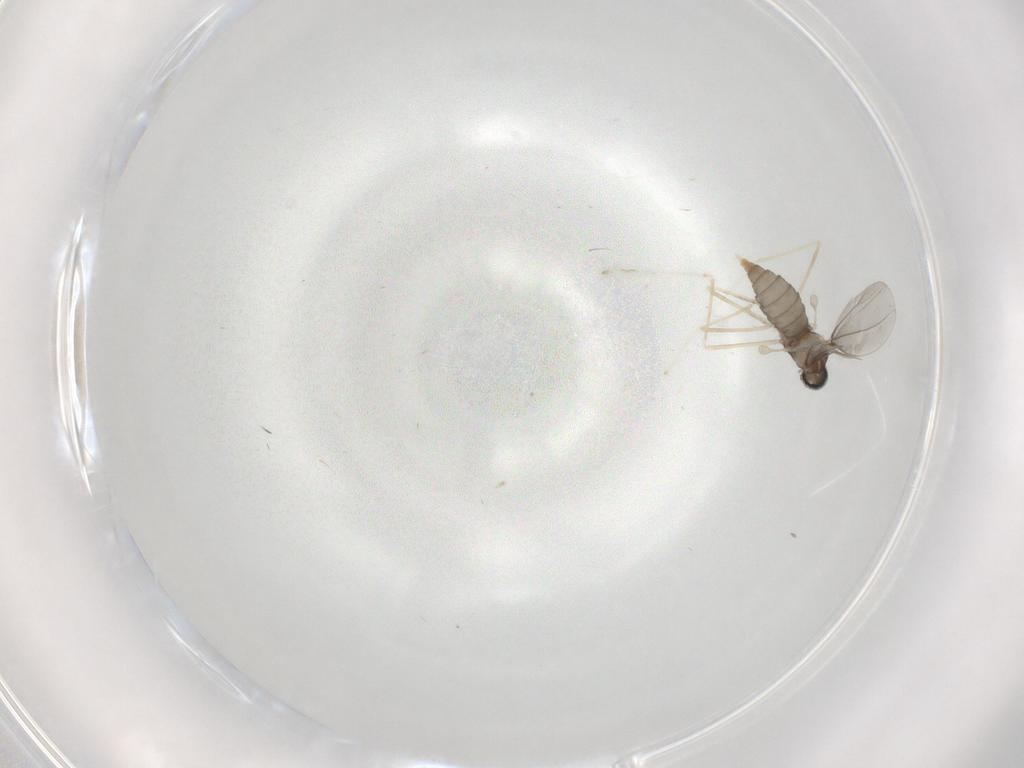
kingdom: Animalia
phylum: Arthropoda
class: Insecta
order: Diptera
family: Cecidomyiidae
